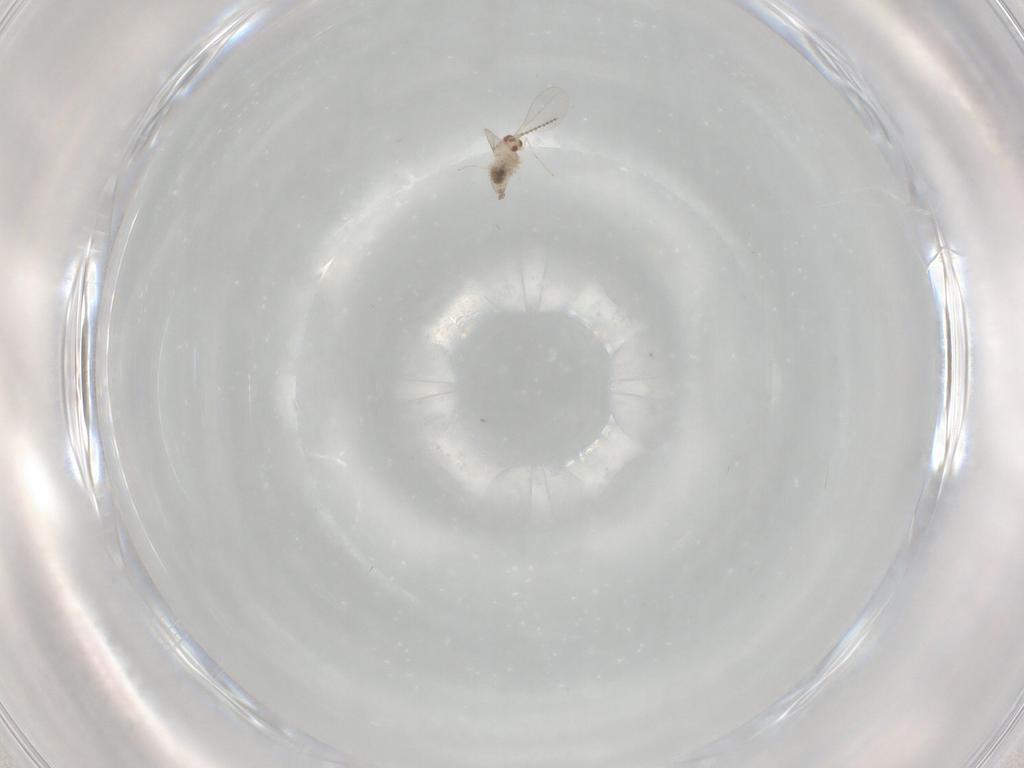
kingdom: Animalia
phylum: Arthropoda
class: Insecta
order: Diptera
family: Cecidomyiidae
